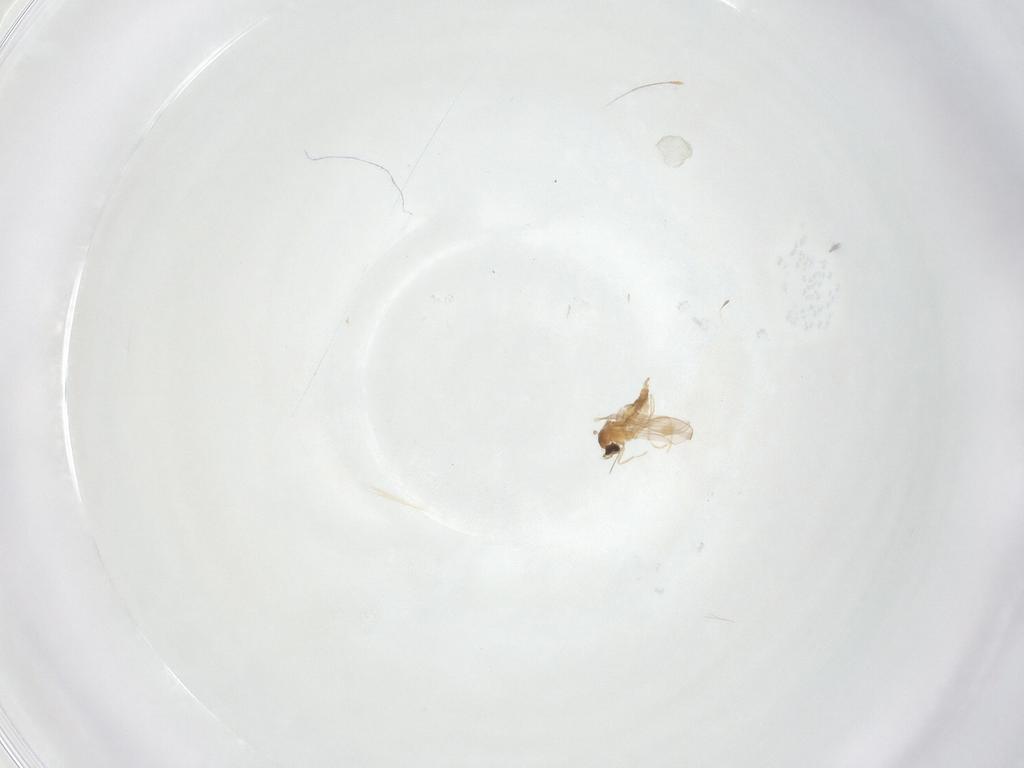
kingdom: Animalia
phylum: Arthropoda
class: Insecta
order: Diptera
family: Cecidomyiidae
